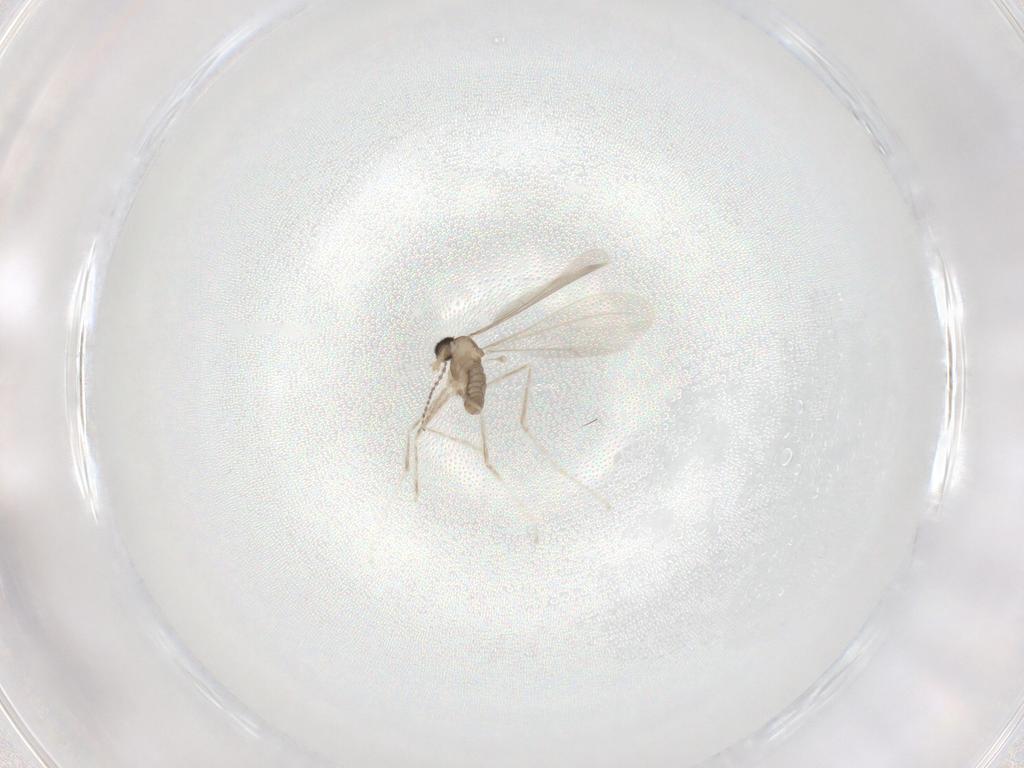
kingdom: Animalia
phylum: Arthropoda
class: Insecta
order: Diptera
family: Cecidomyiidae
